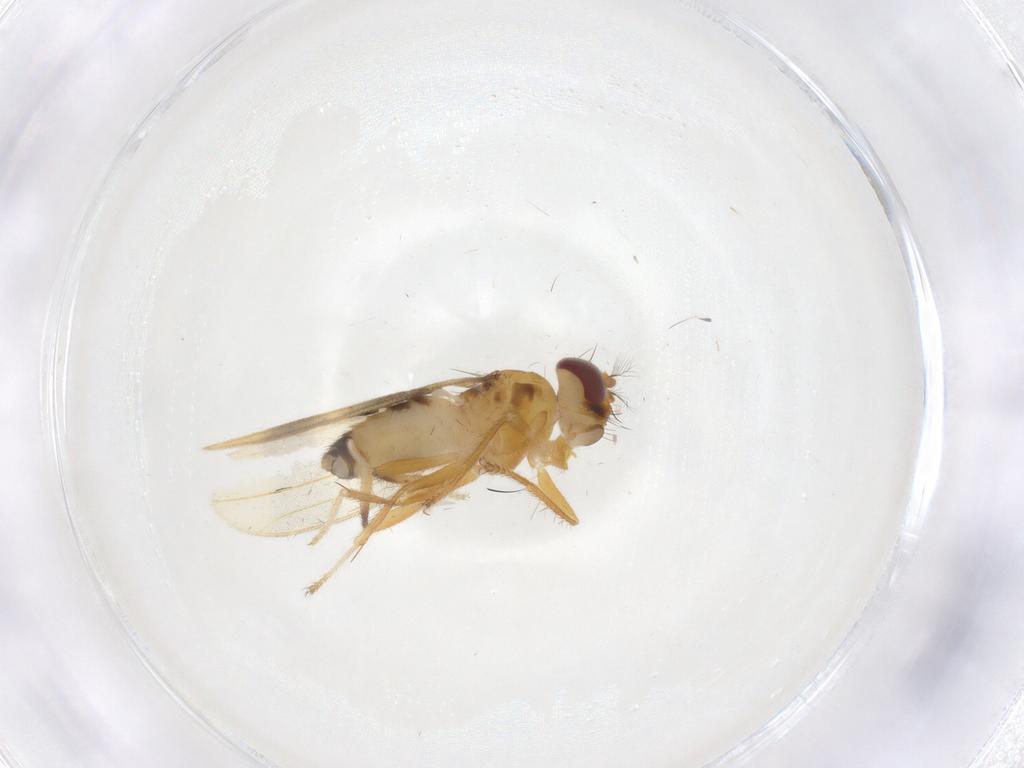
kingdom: Animalia
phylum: Arthropoda
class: Insecta
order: Diptera
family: Periscelididae
